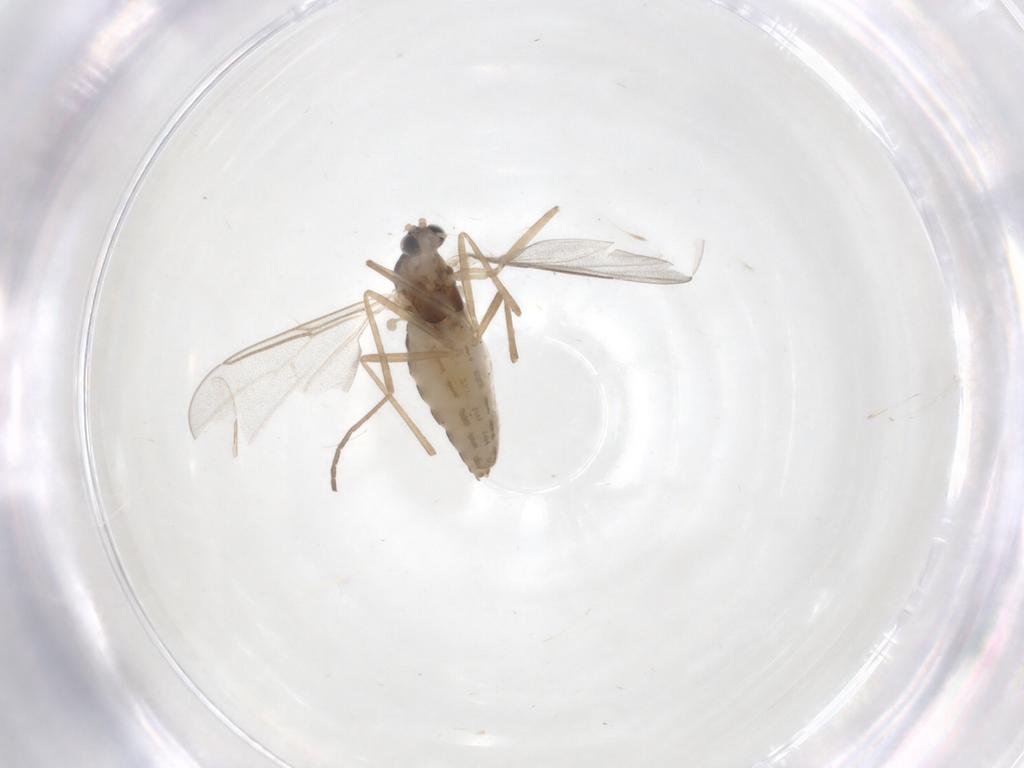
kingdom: Animalia
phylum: Arthropoda
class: Insecta
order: Diptera
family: Cecidomyiidae
